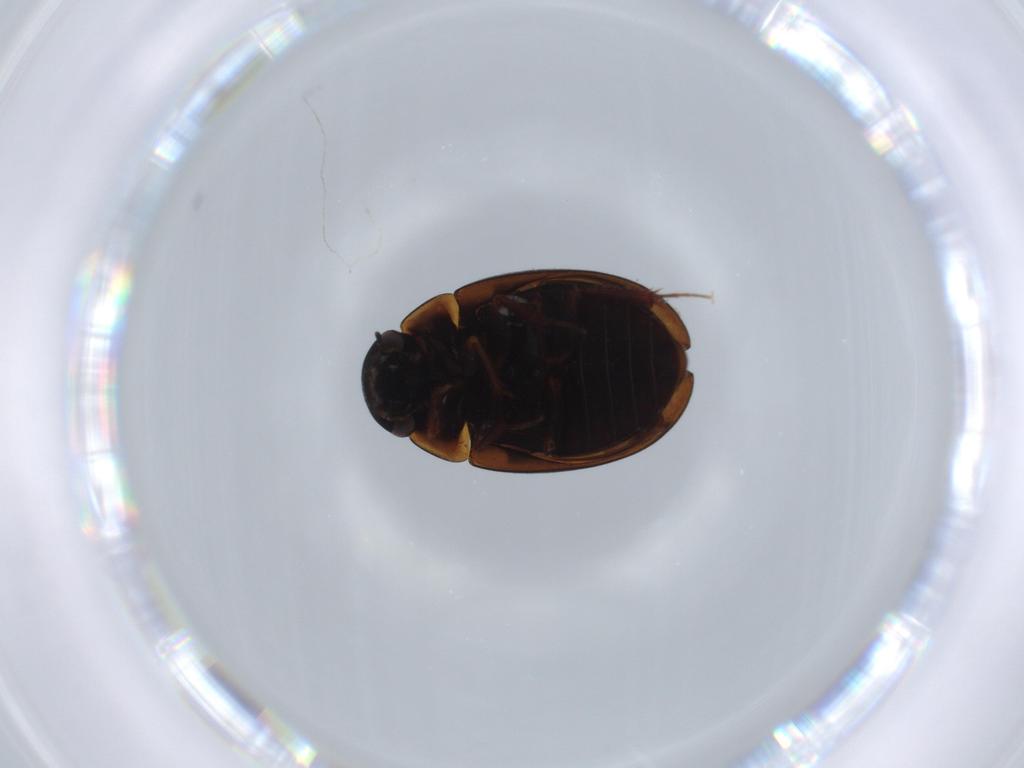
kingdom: Animalia
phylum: Arthropoda
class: Insecta
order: Coleoptera
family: Hydrophilidae
